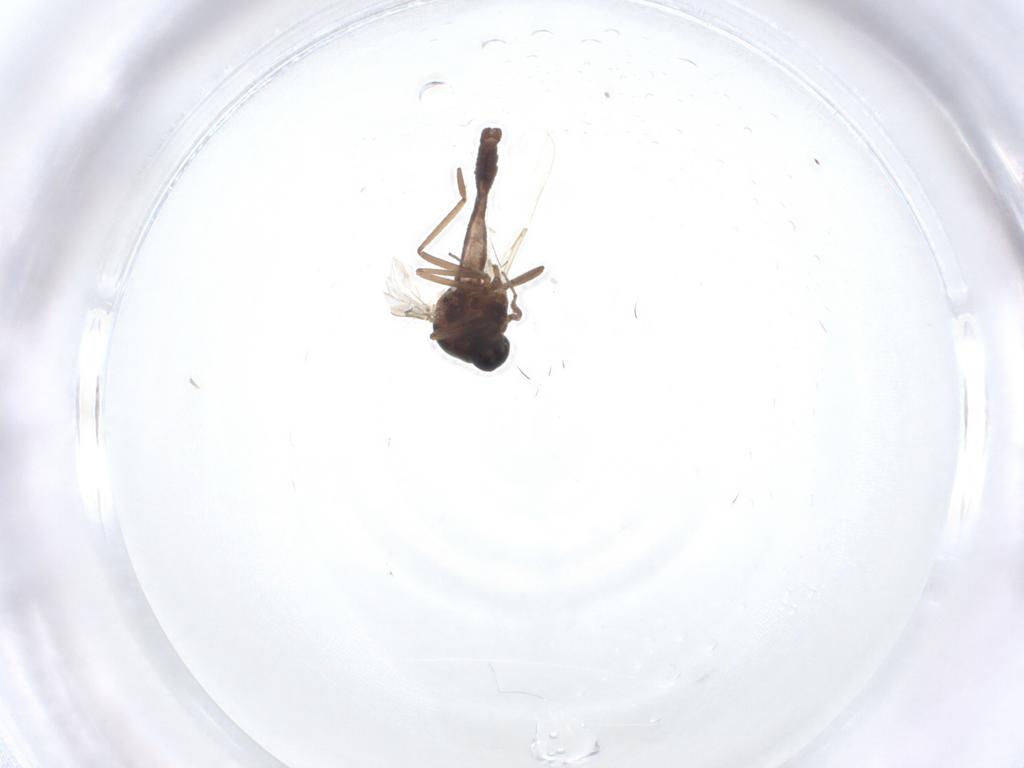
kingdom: Animalia
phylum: Arthropoda
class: Insecta
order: Diptera
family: Ceratopogonidae
